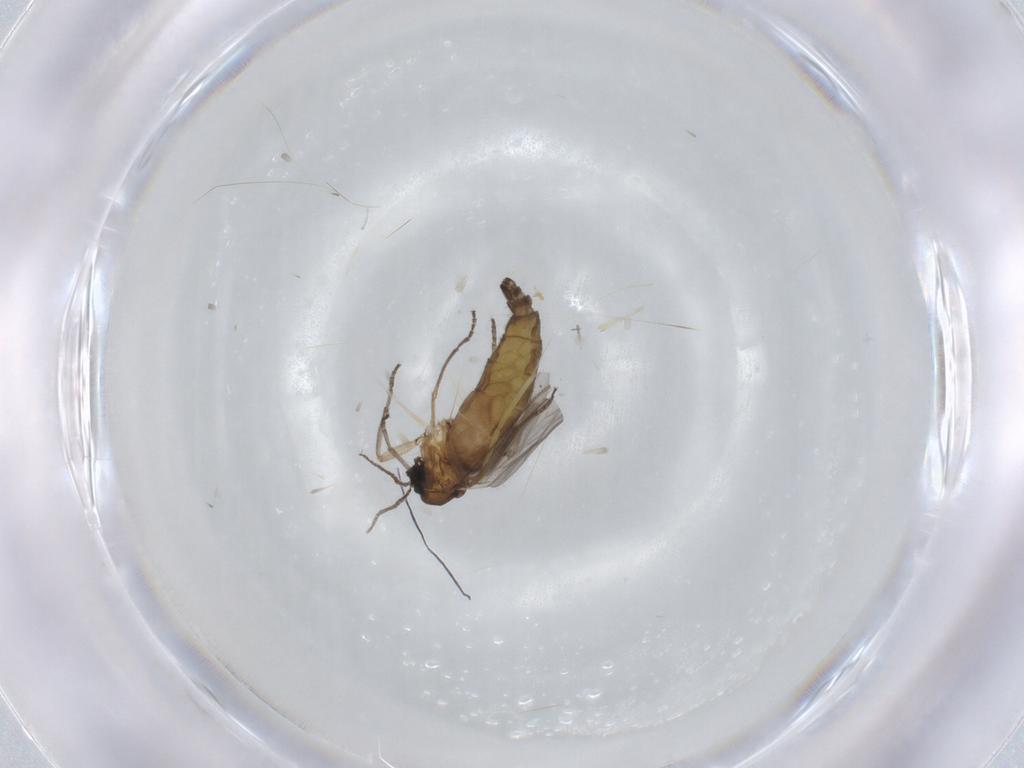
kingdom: Animalia
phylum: Arthropoda
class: Insecta
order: Diptera
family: Sciaridae
